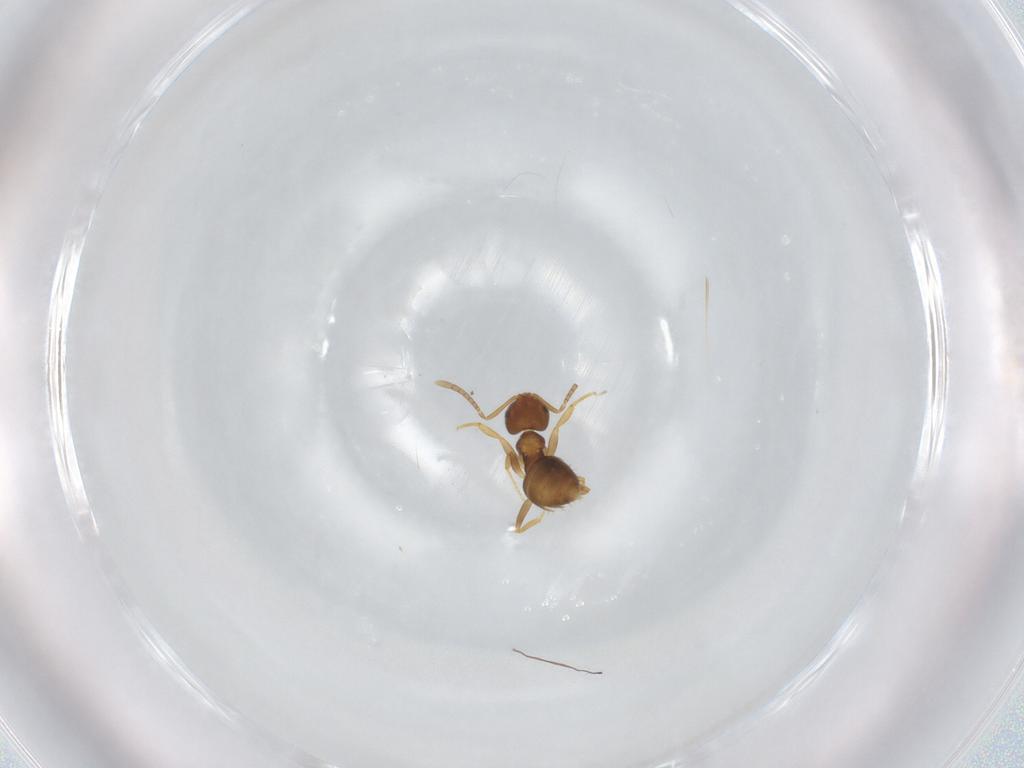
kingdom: Animalia
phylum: Arthropoda
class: Insecta
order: Hymenoptera
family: Formicidae
